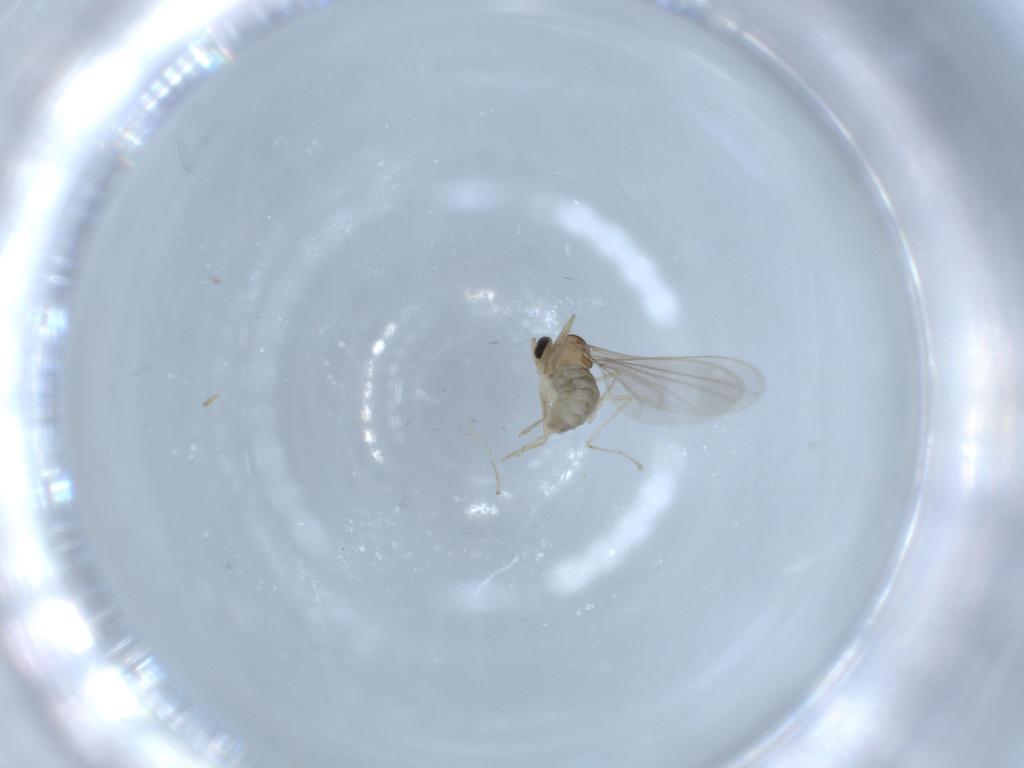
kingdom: Animalia
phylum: Arthropoda
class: Insecta
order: Diptera
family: Cecidomyiidae
